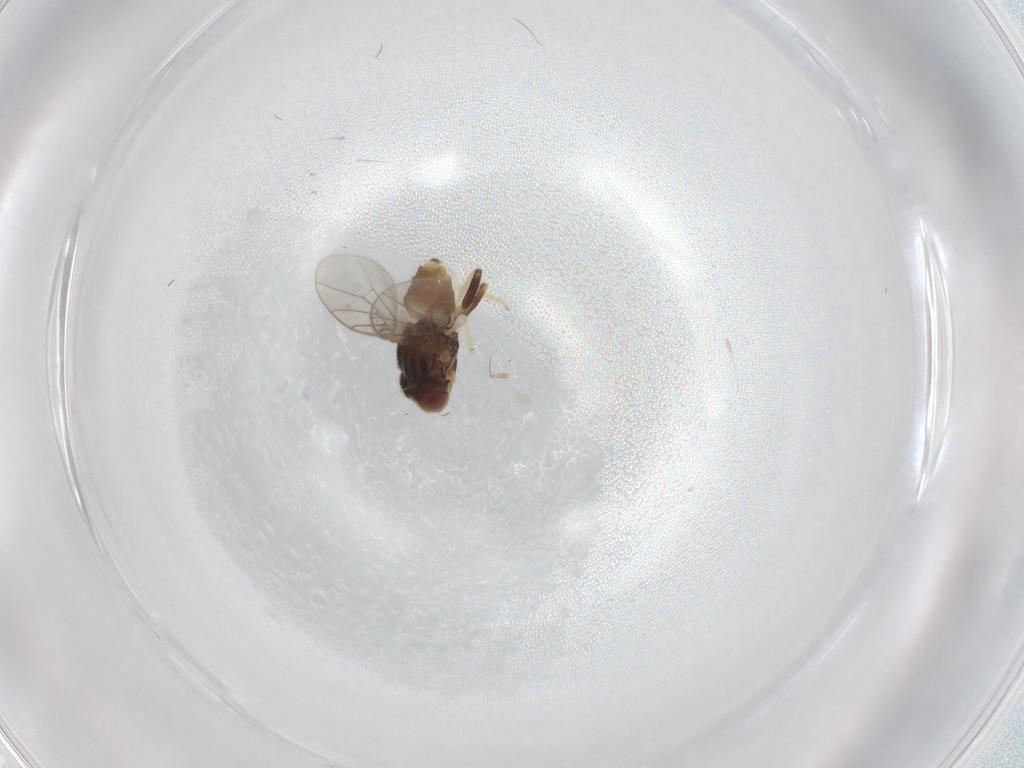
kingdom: Animalia
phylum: Arthropoda
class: Insecta
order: Diptera
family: Chloropidae
